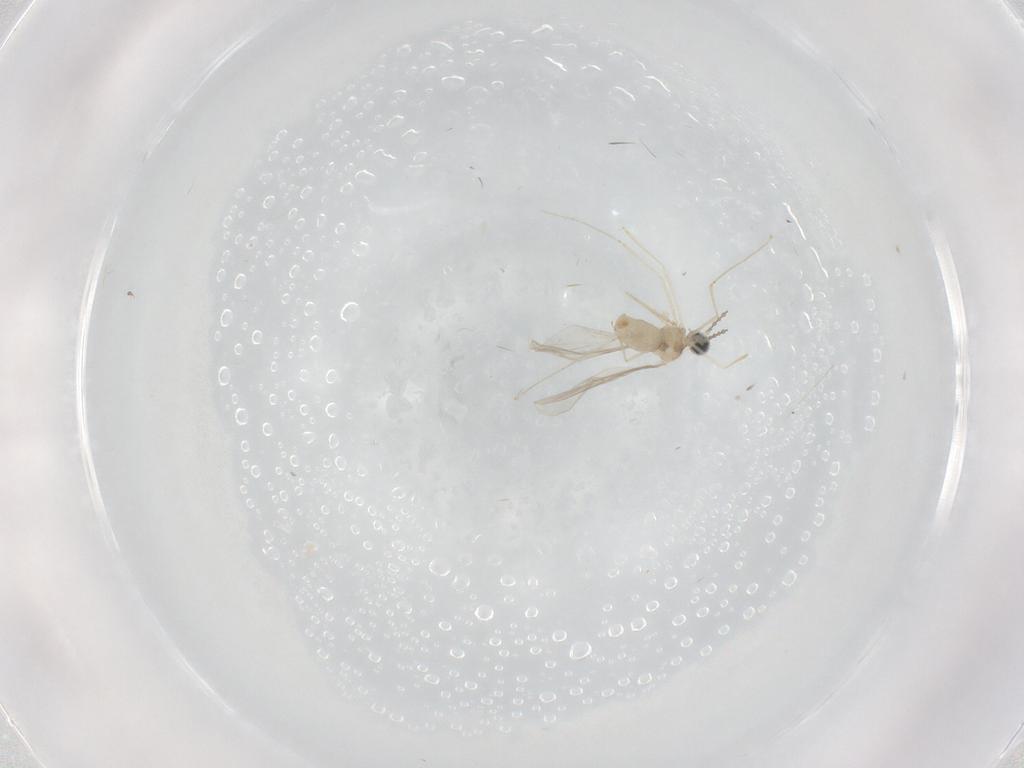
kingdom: Animalia
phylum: Arthropoda
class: Insecta
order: Diptera
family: Cecidomyiidae
